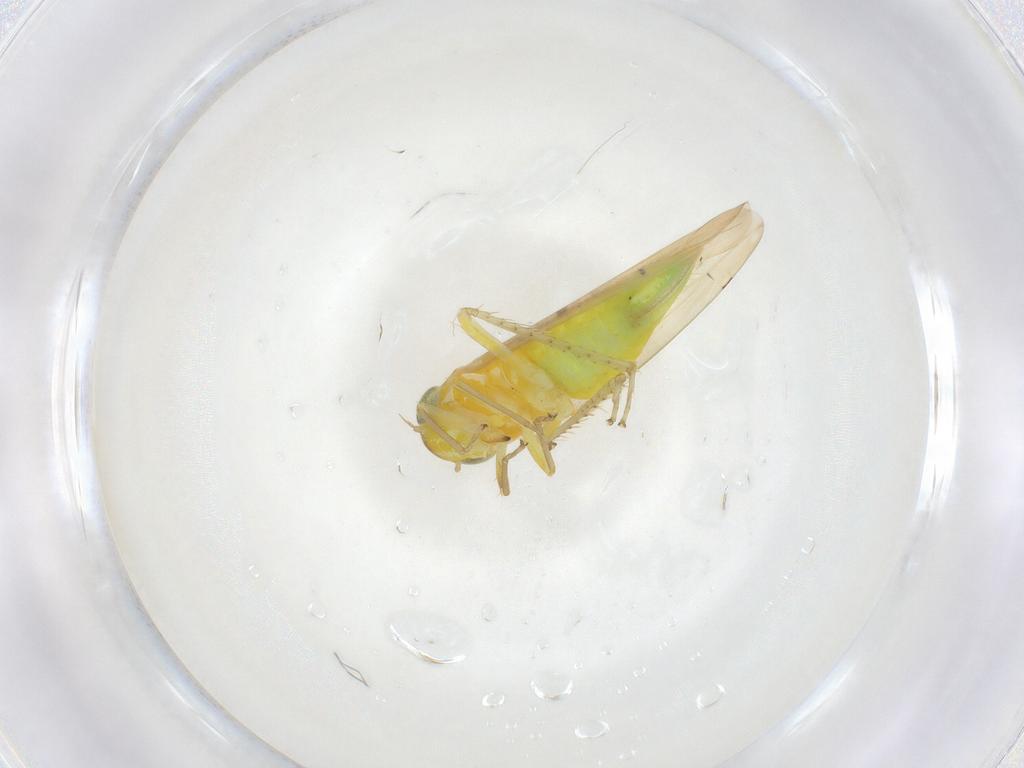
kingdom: Animalia
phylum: Arthropoda
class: Insecta
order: Hemiptera
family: Cicadellidae
